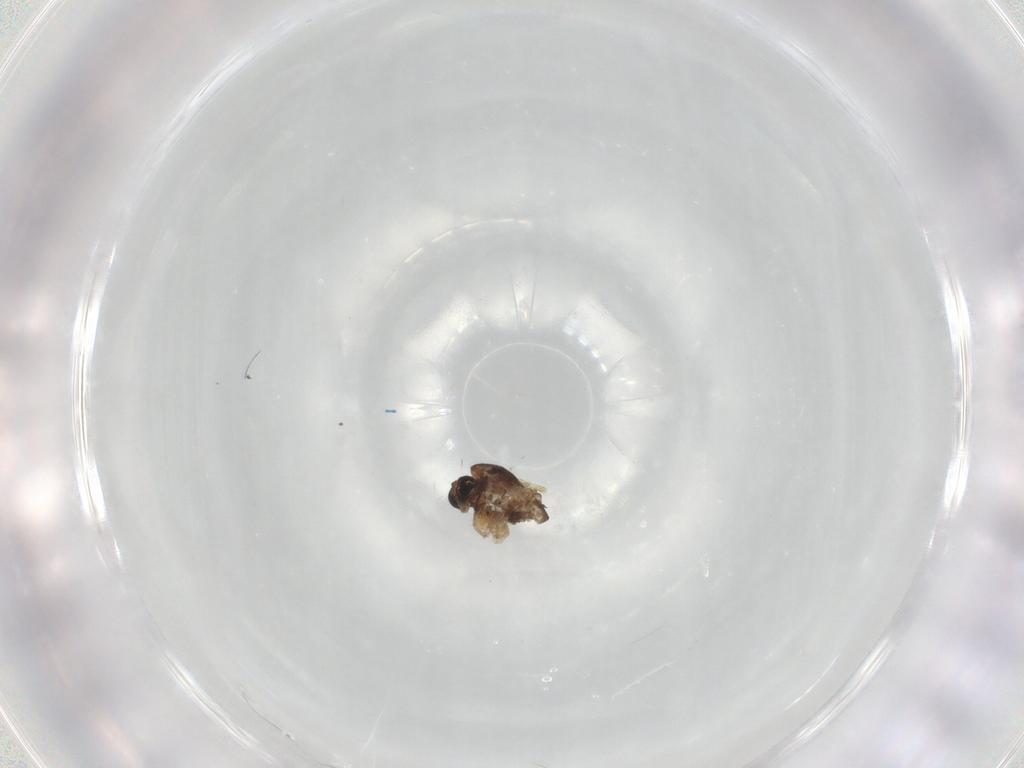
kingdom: Animalia
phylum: Arthropoda
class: Insecta
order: Diptera
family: Chironomidae
